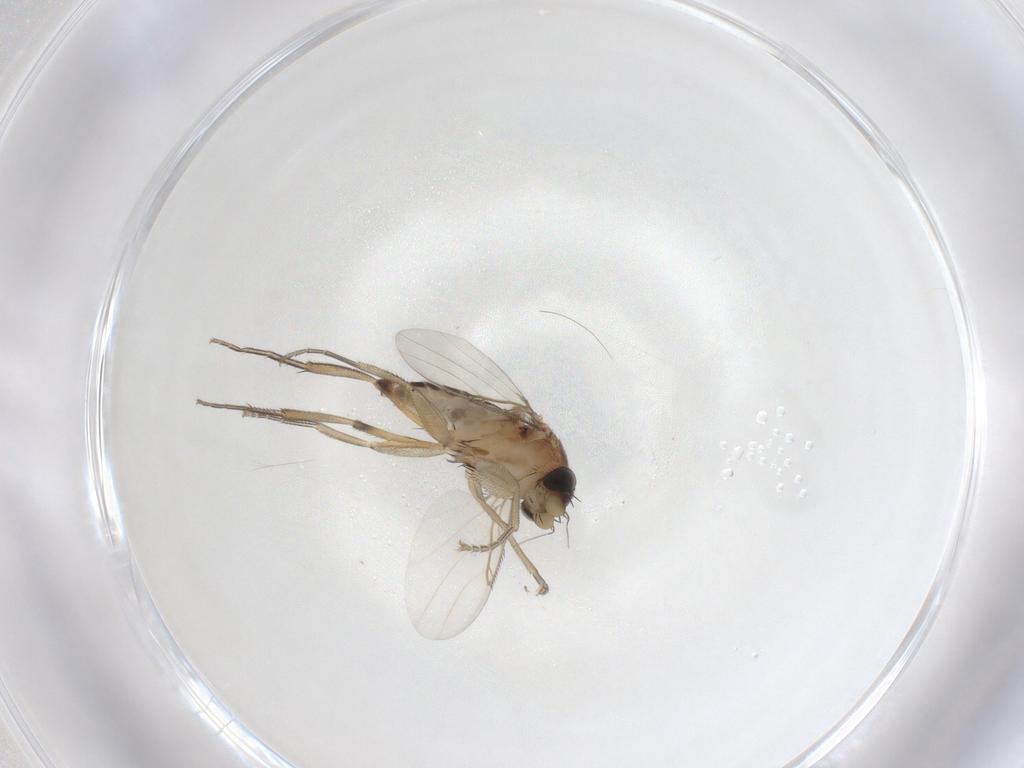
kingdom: Animalia
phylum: Arthropoda
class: Insecta
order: Diptera
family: Phoridae
